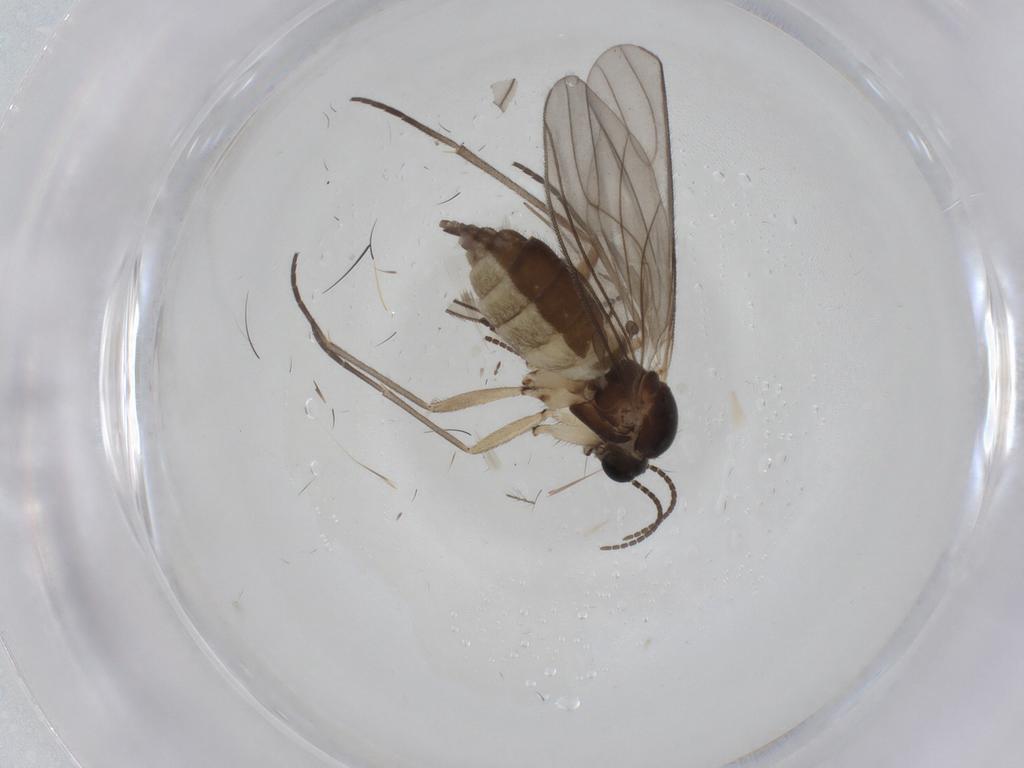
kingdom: Animalia
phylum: Arthropoda
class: Insecta
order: Diptera
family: Sciaridae
